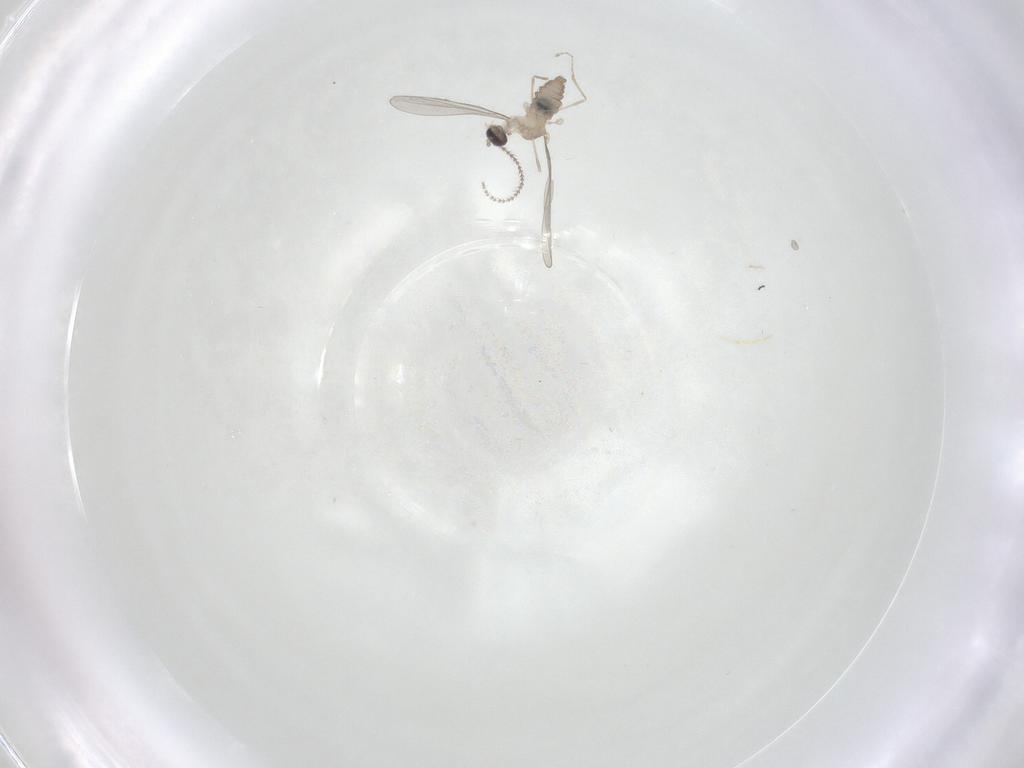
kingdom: Animalia
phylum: Arthropoda
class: Insecta
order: Diptera
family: Cecidomyiidae
